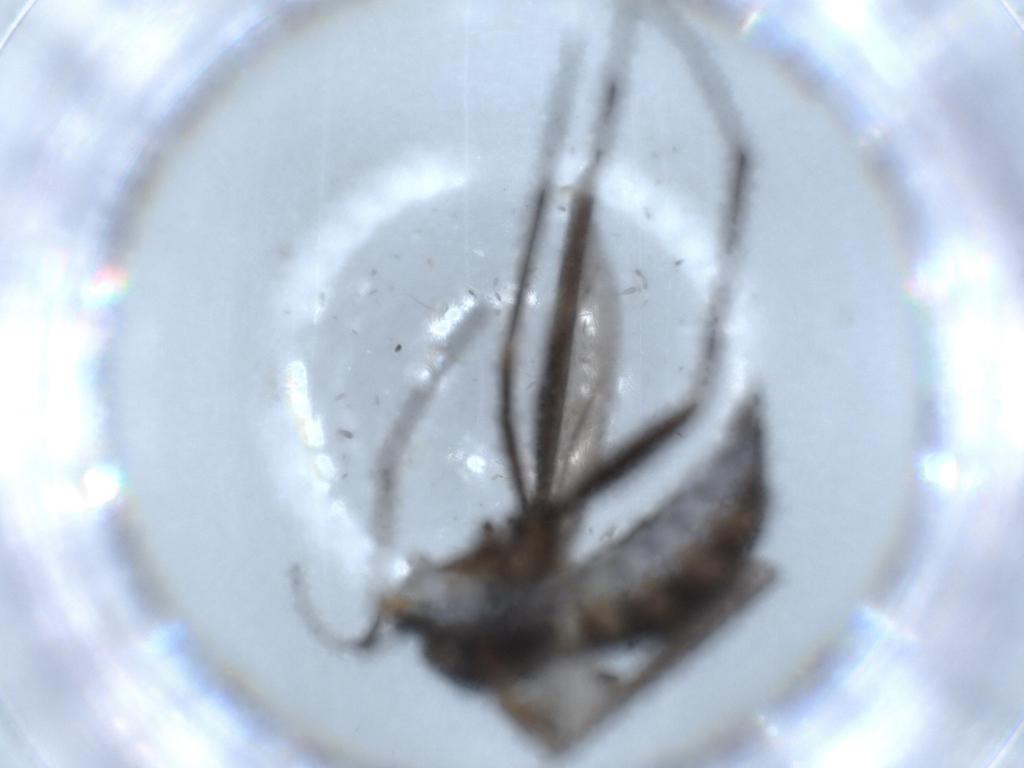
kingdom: Animalia
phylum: Arthropoda
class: Insecta
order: Diptera
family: Sciaridae
